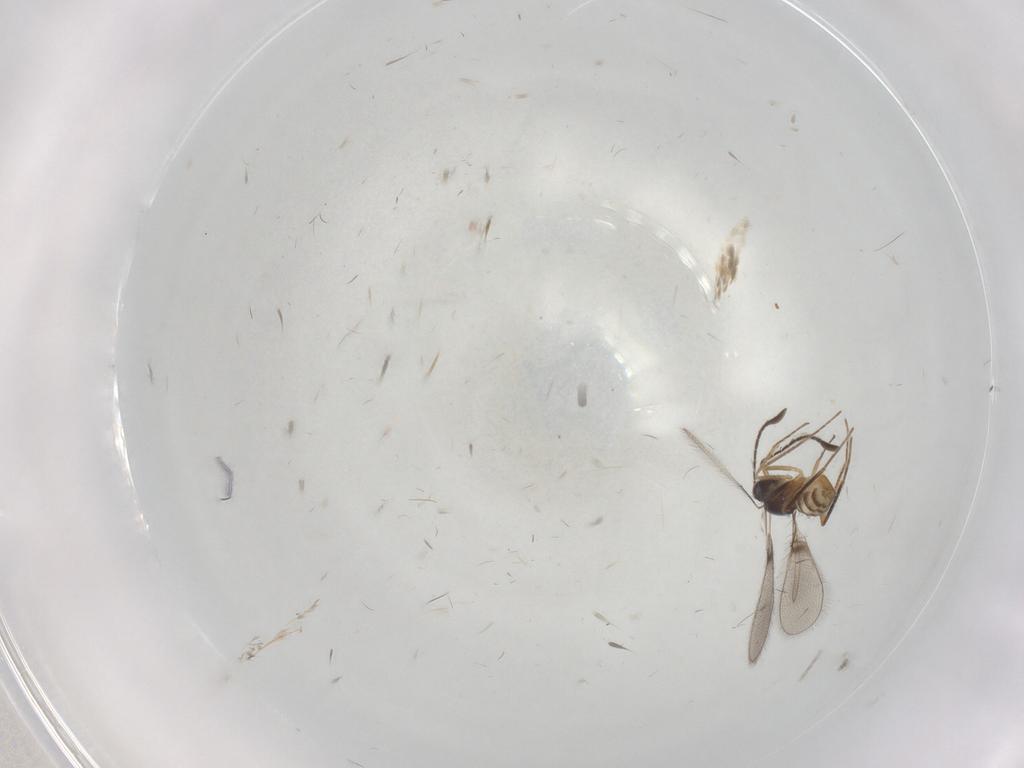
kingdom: Animalia
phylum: Arthropoda
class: Insecta
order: Hymenoptera
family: Mymaridae
